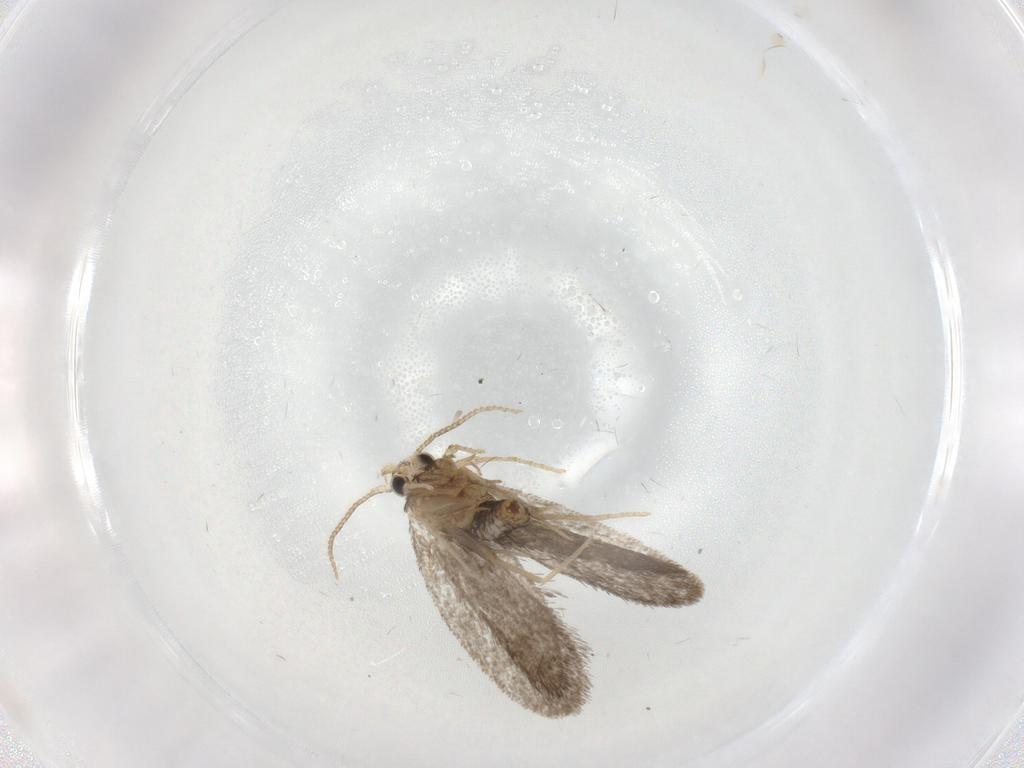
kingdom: Animalia
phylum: Arthropoda
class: Insecta
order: Lepidoptera
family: Psychidae
